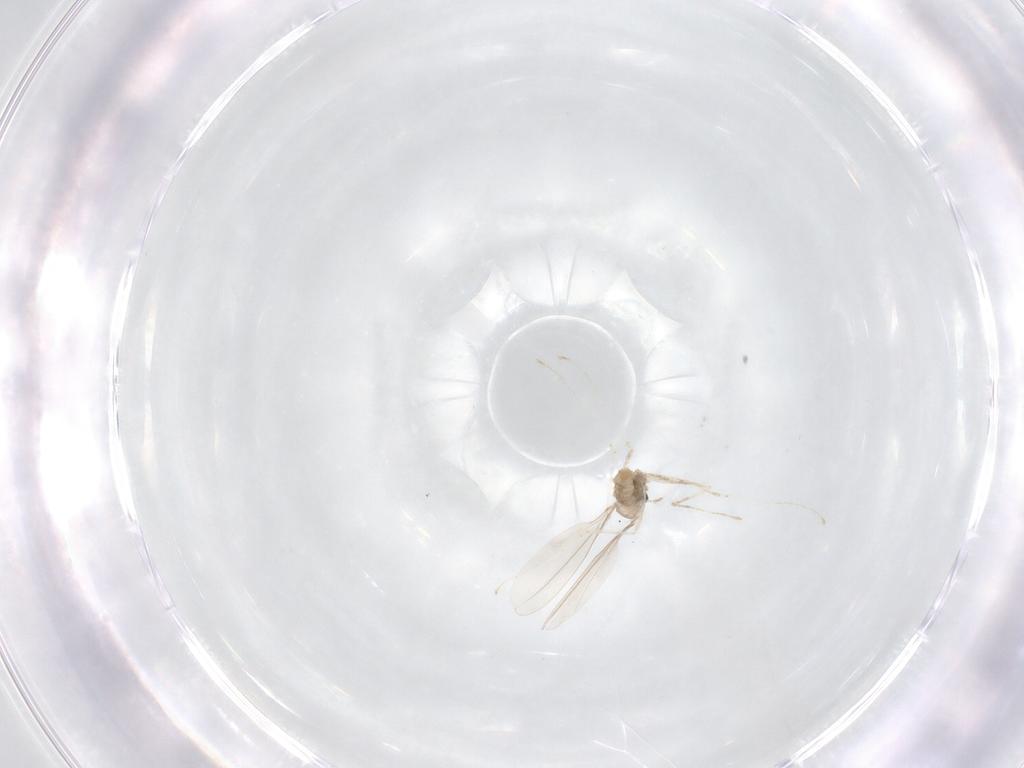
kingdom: Animalia
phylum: Arthropoda
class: Insecta
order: Diptera
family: Cecidomyiidae
